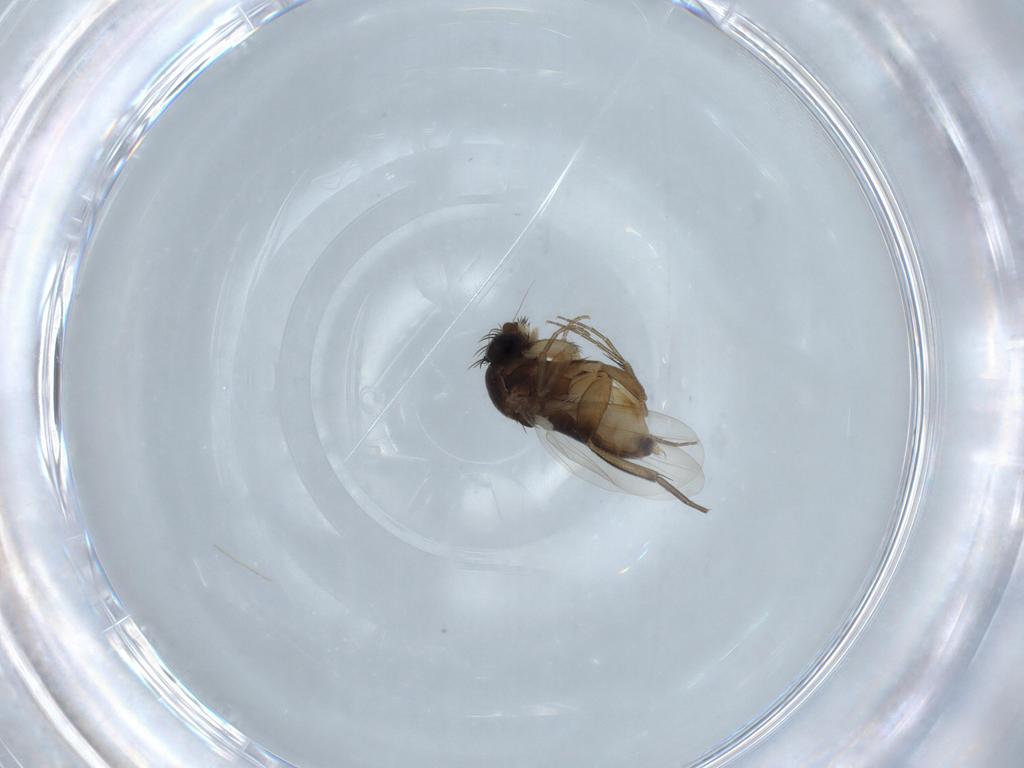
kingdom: Animalia
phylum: Arthropoda
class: Insecta
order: Diptera
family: Phoridae
